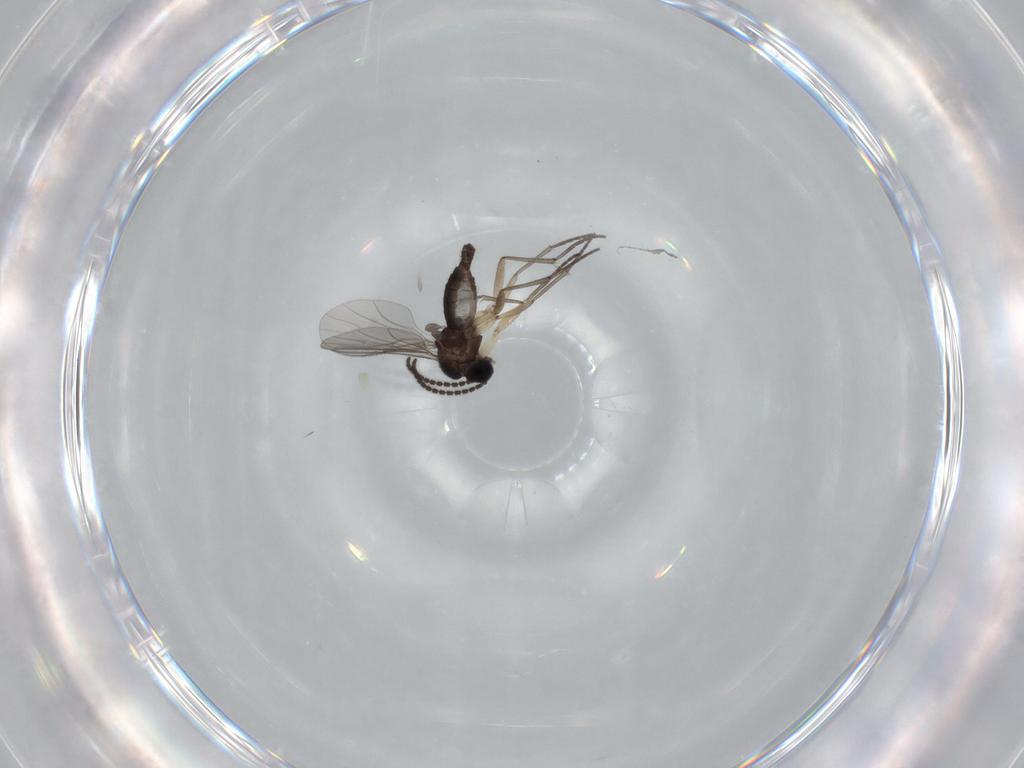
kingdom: Animalia
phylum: Arthropoda
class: Insecta
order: Diptera
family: Sciaridae
